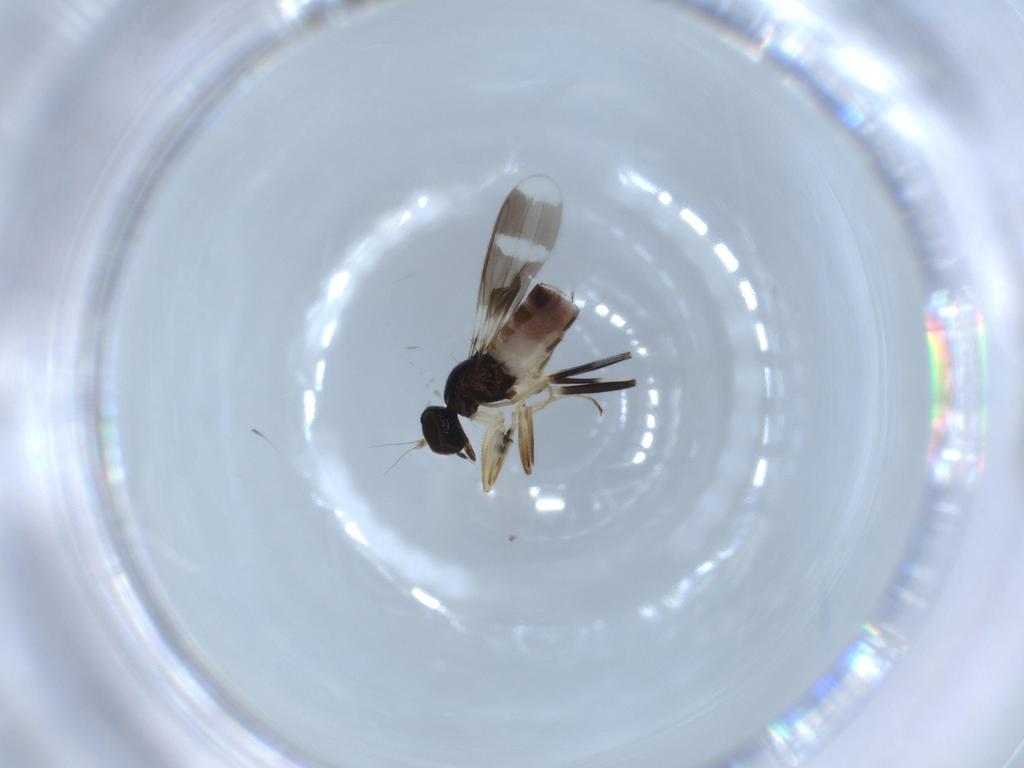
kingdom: Animalia
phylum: Arthropoda
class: Insecta
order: Diptera
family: Hybotidae
